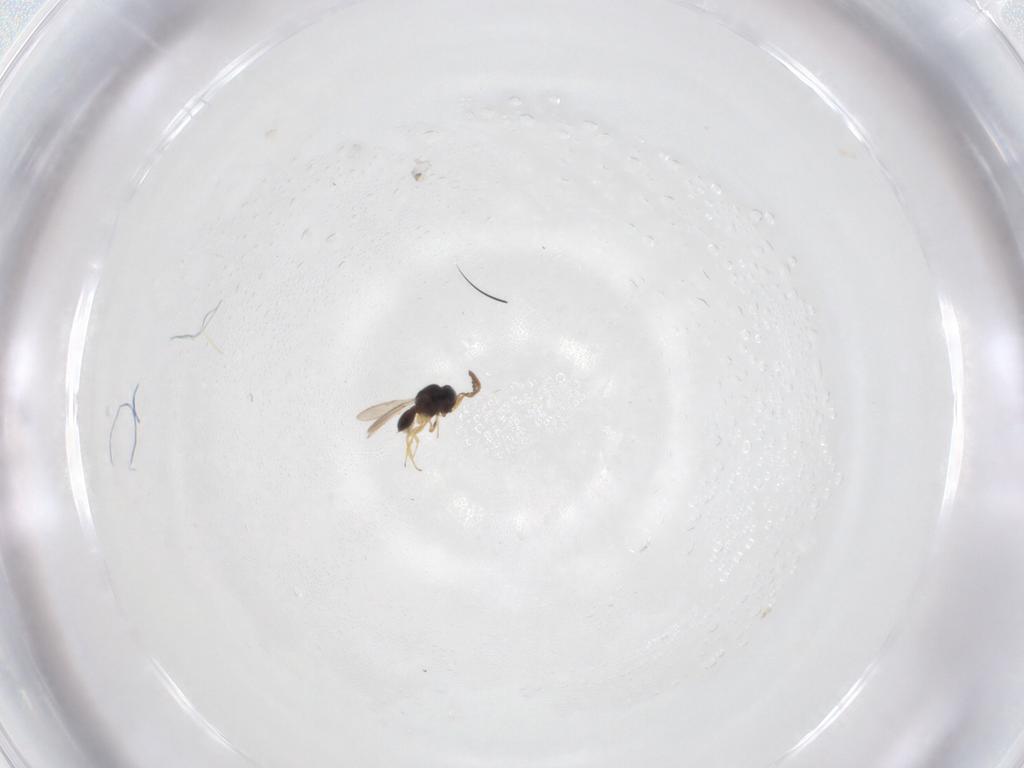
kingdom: Animalia
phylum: Arthropoda
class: Insecta
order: Hymenoptera
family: Scelionidae
